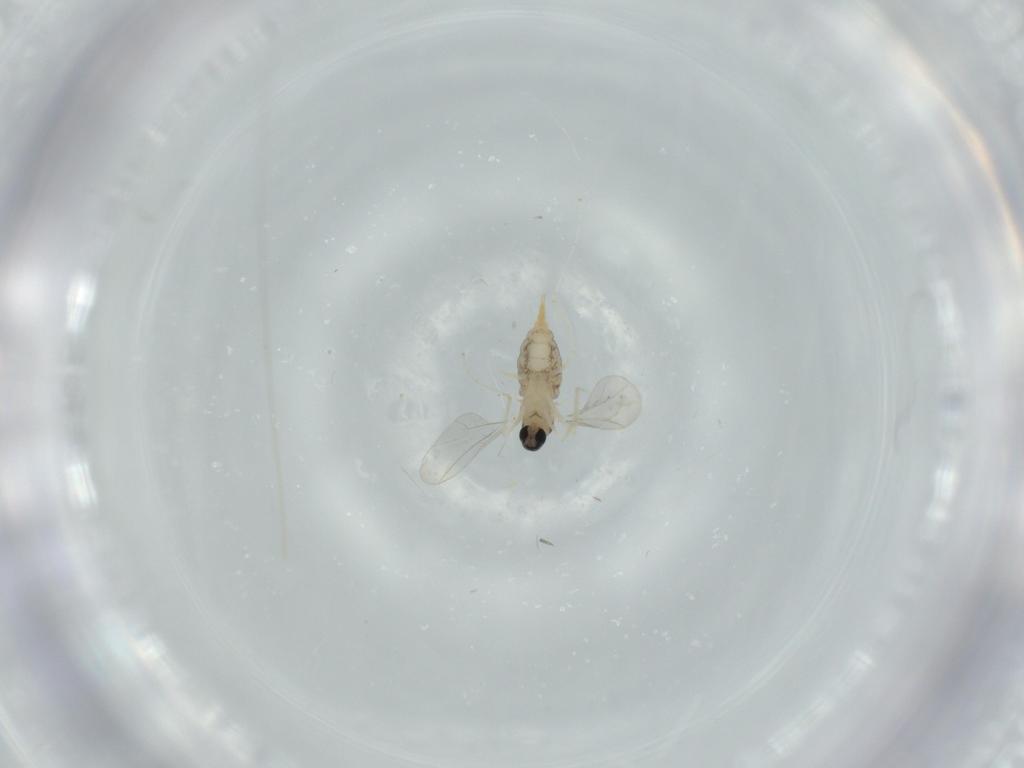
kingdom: Animalia
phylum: Arthropoda
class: Insecta
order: Diptera
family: Cecidomyiidae
